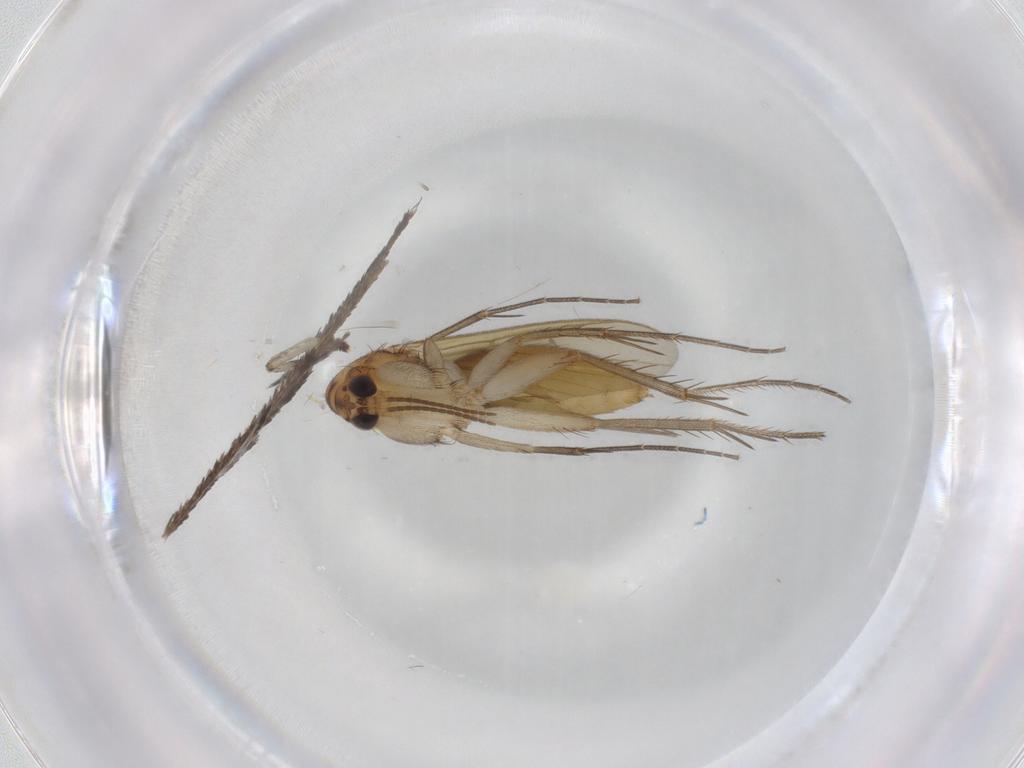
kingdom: Animalia
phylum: Arthropoda
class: Insecta
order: Diptera
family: Mycetophilidae
